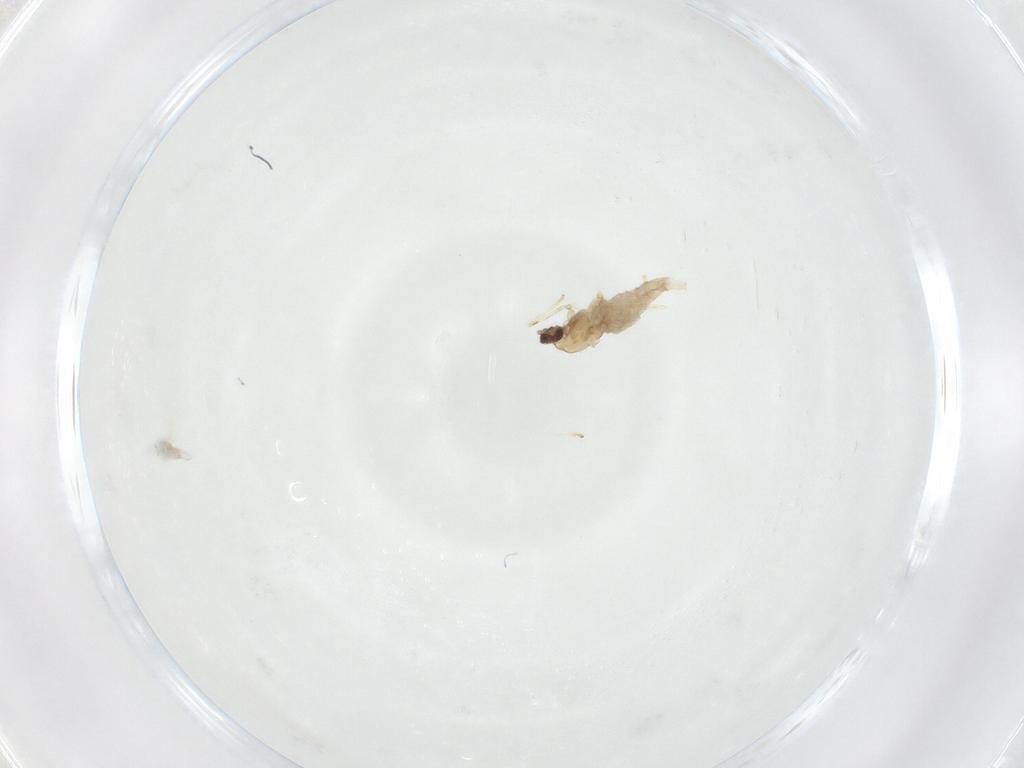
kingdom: Animalia
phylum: Arthropoda
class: Insecta
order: Diptera
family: Cecidomyiidae
